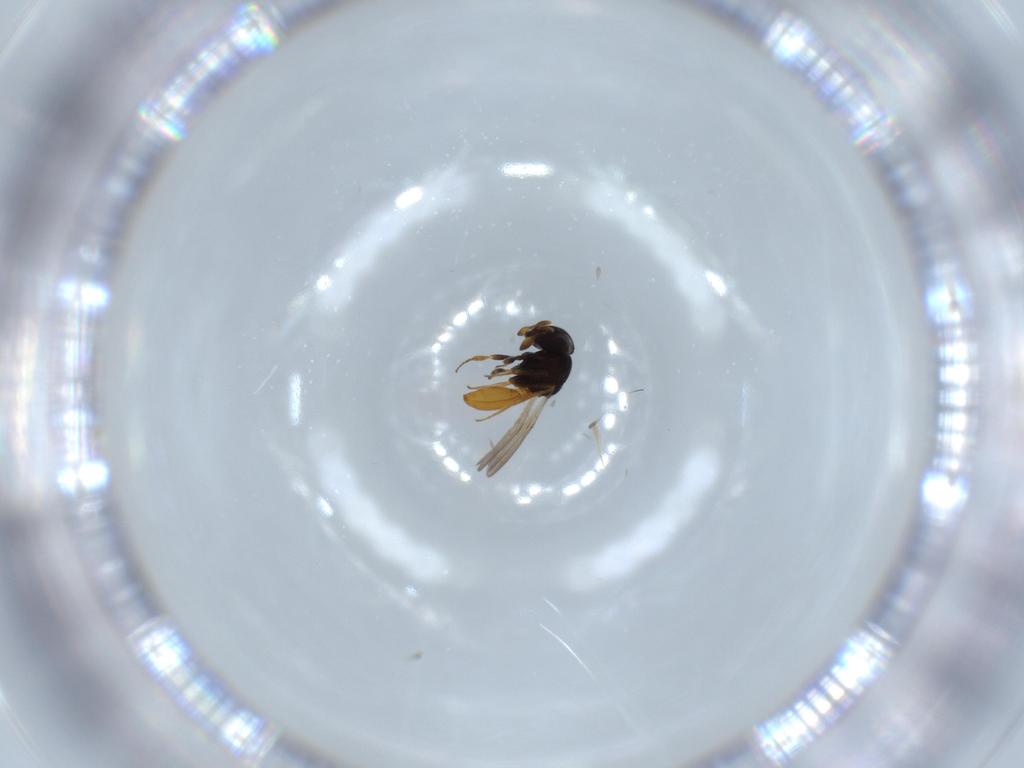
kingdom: Animalia
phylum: Arthropoda
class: Insecta
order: Hymenoptera
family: Scelionidae
